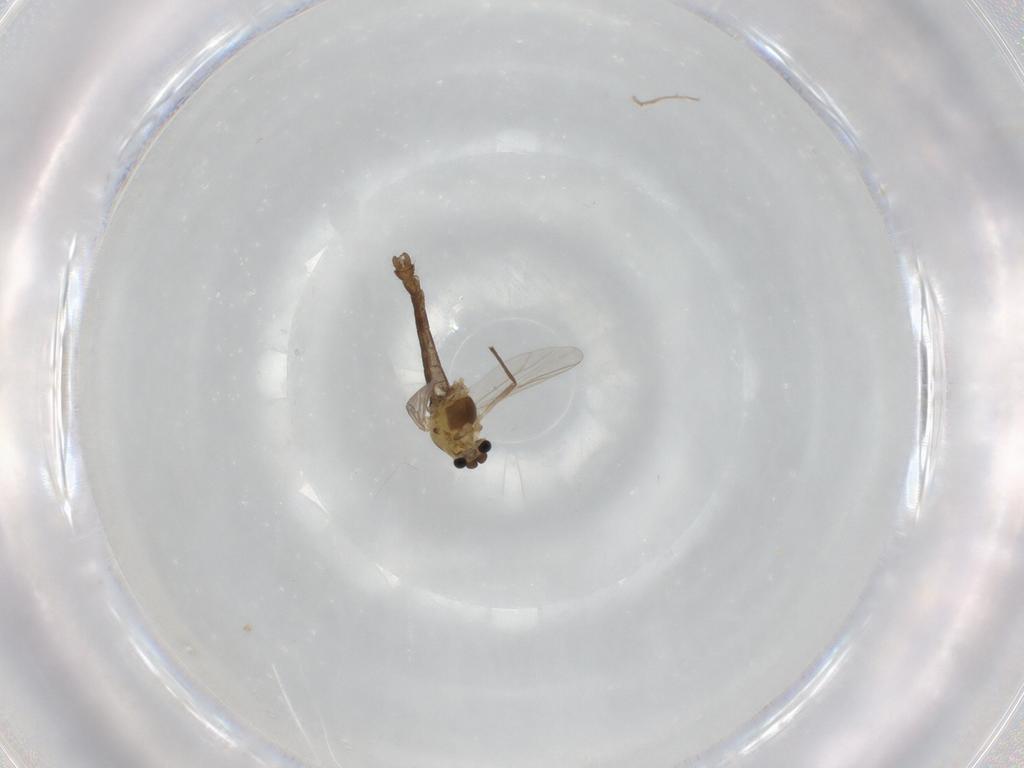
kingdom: Animalia
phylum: Arthropoda
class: Insecta
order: Diptera
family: Chironomidae
